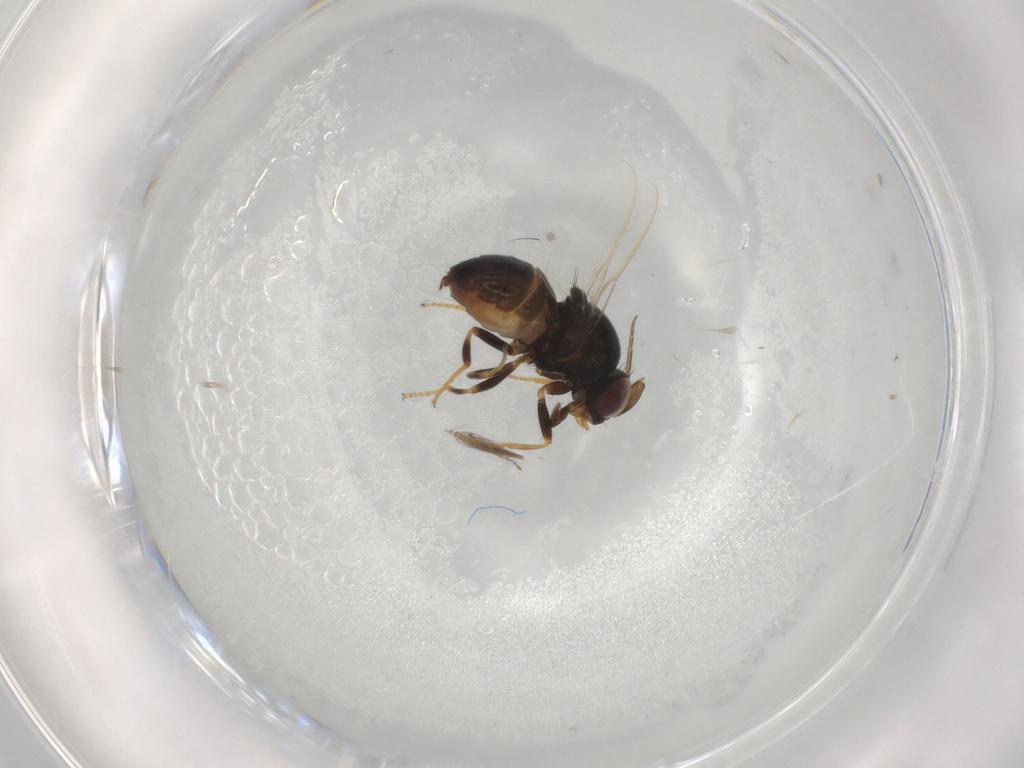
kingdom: Animalia
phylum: Arthropoda
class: Insecta
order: Diptera
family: Chloropidae
